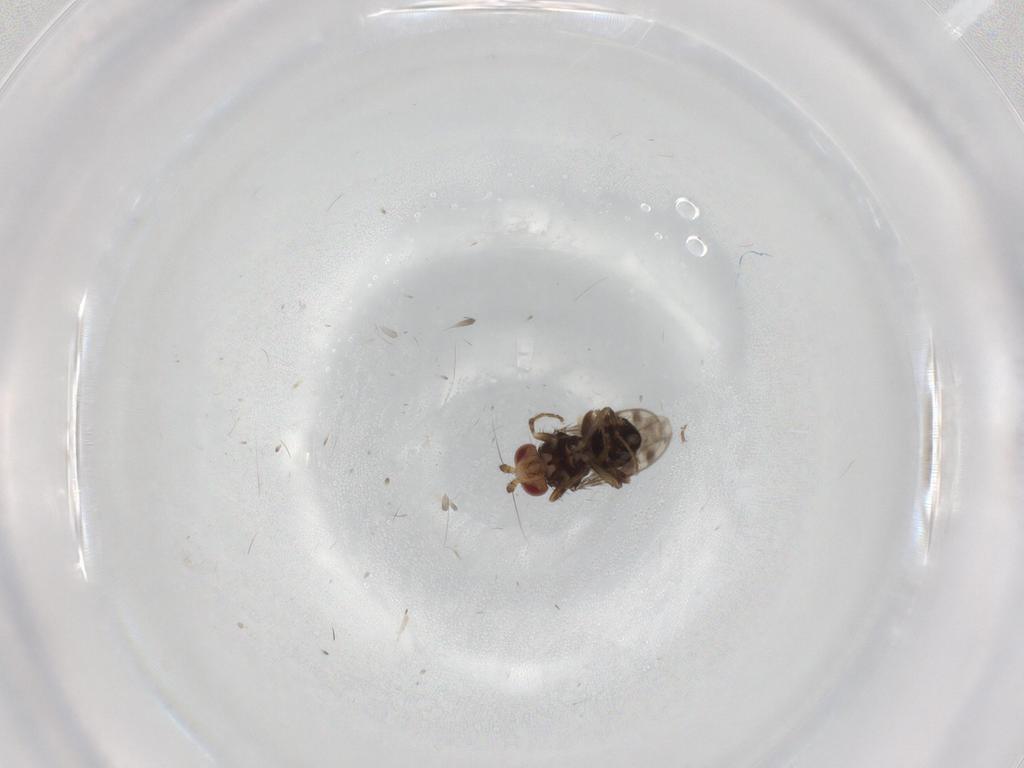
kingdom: Animalia
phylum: Arthropoda
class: Insecta
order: Diptera
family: Sphaeroceridae
